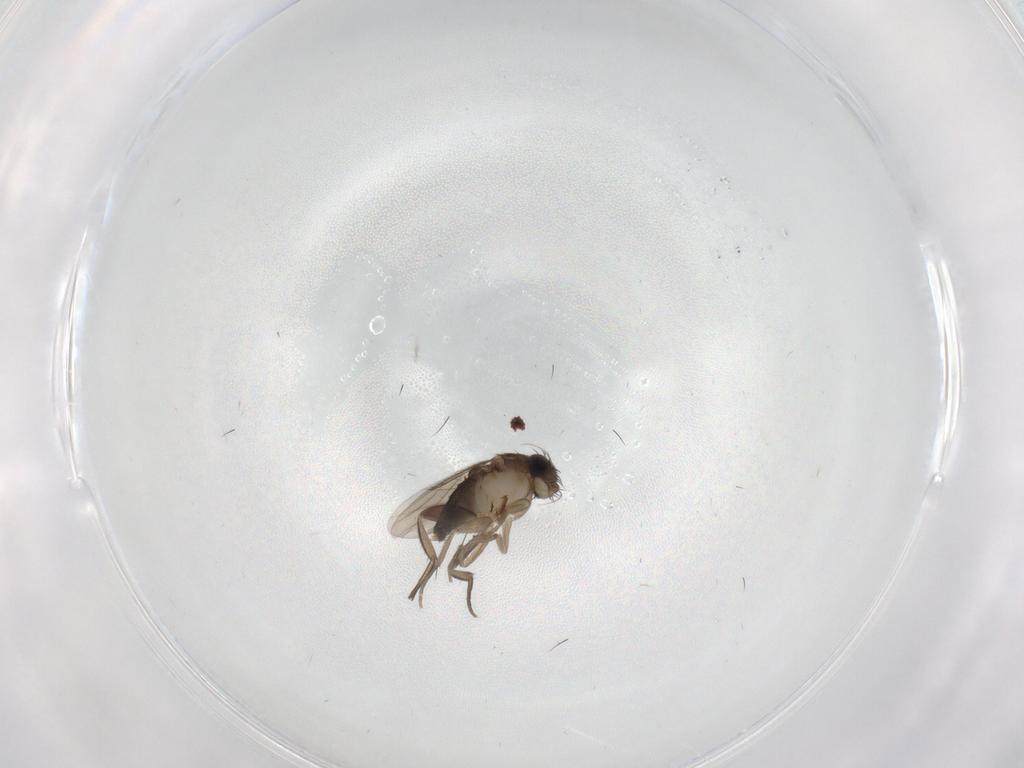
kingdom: Animalia
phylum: Arthropoda
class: Insecta
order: Diptera
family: Phoridae
